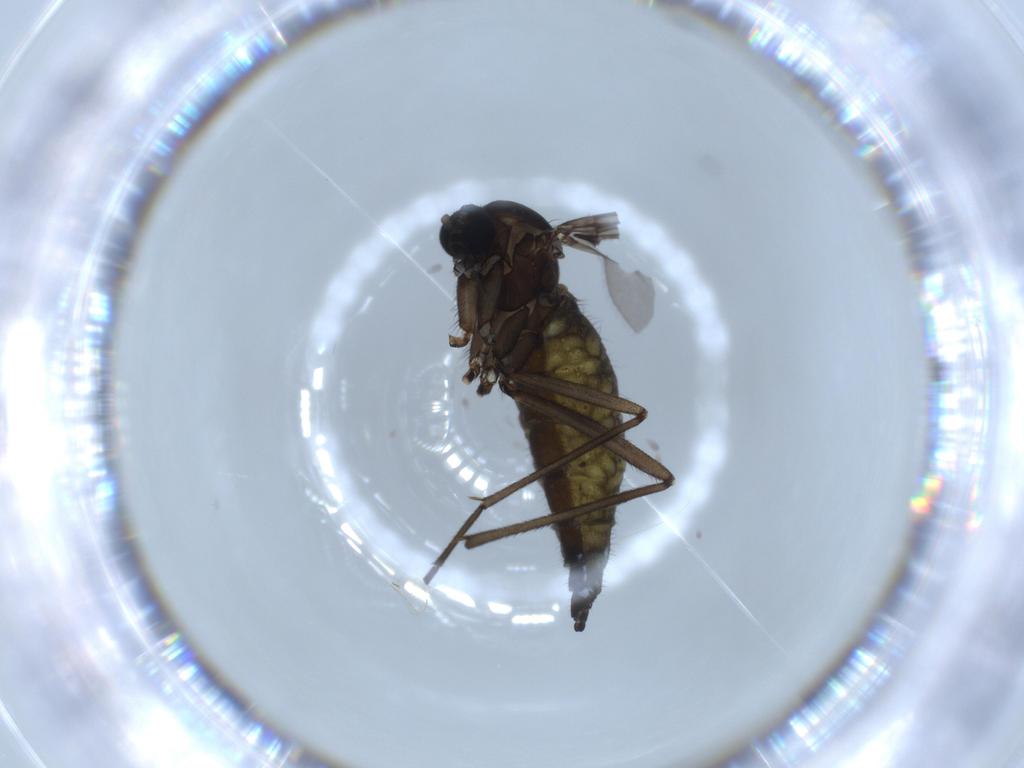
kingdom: Animalia
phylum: Arthropoda
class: Insecta
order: Diptera
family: Sciaridae
